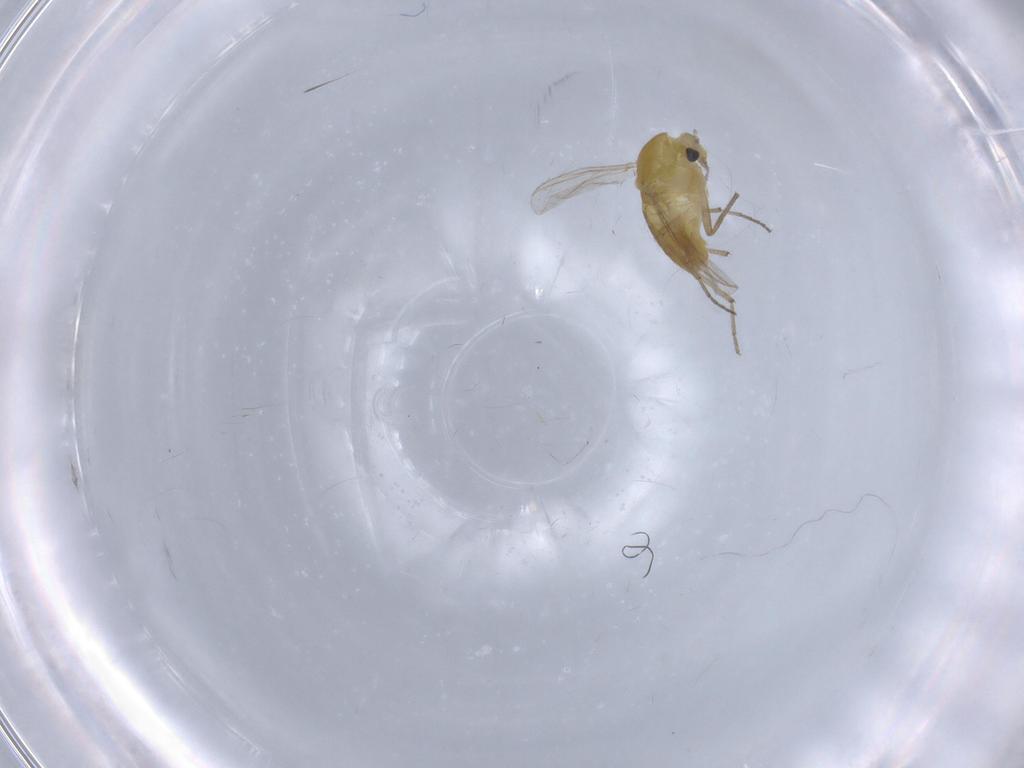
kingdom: Animalia
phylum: Arthropoda
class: Insecta
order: Diptera
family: Chironomidae
